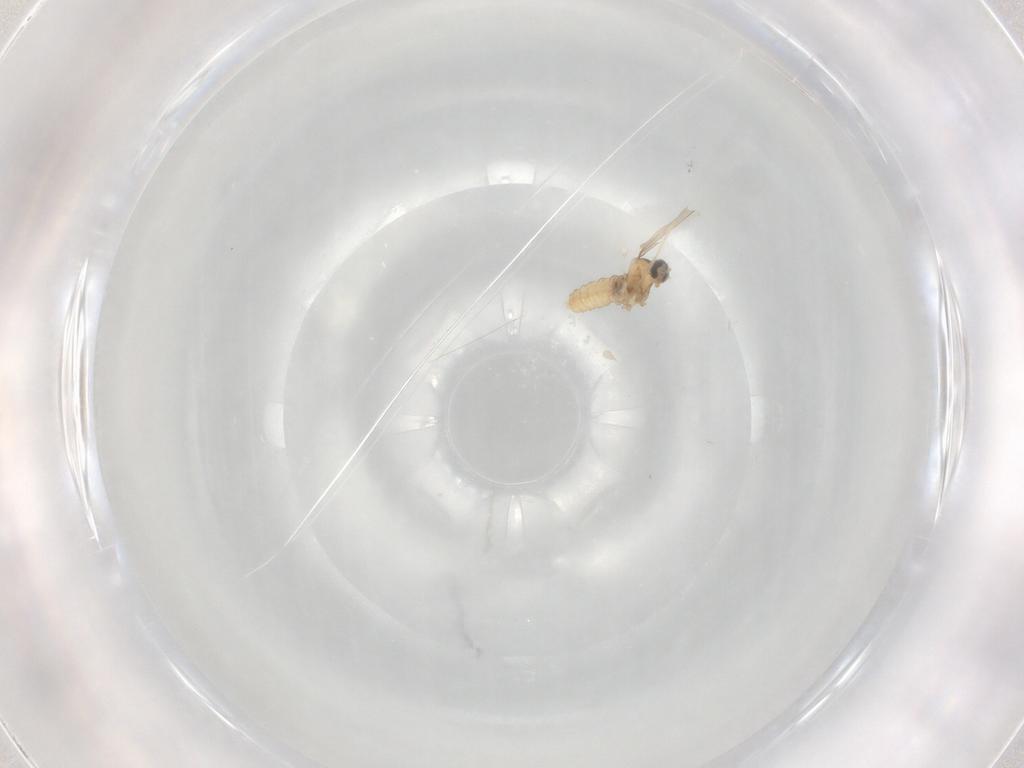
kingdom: Animalia
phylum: Arthropoda
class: Insecta
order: Diptera
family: Cecidomyiidae
